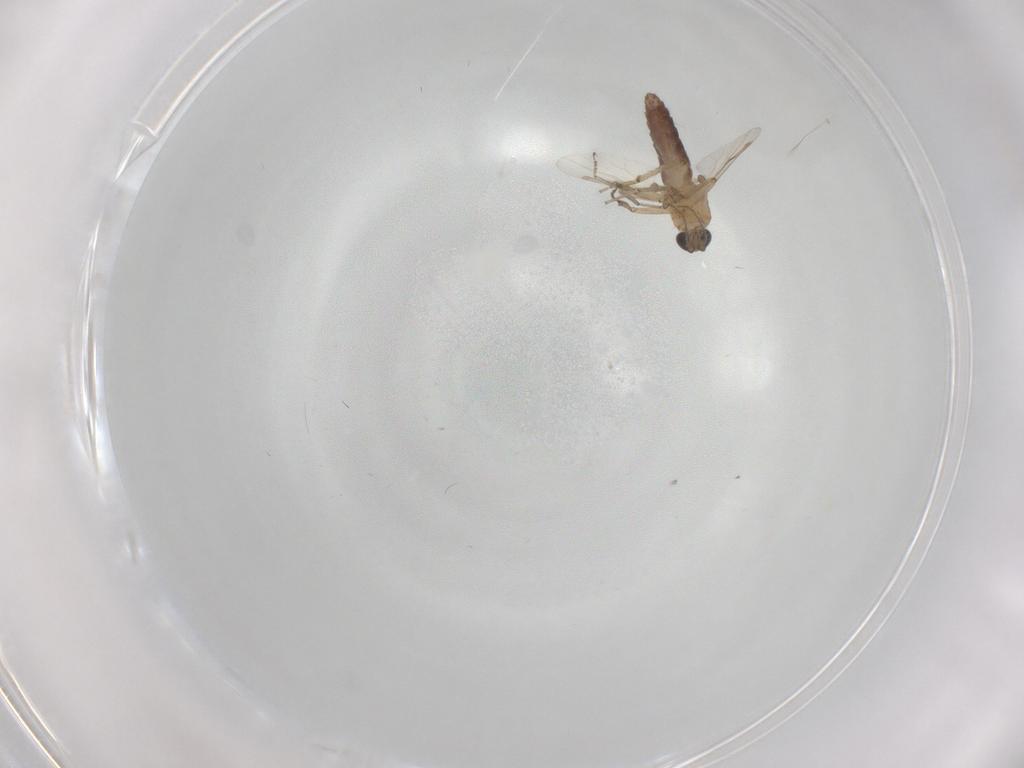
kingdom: Animalia
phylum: Arthropoda
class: Insecta
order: Diptera
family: Ceratopogonidae
